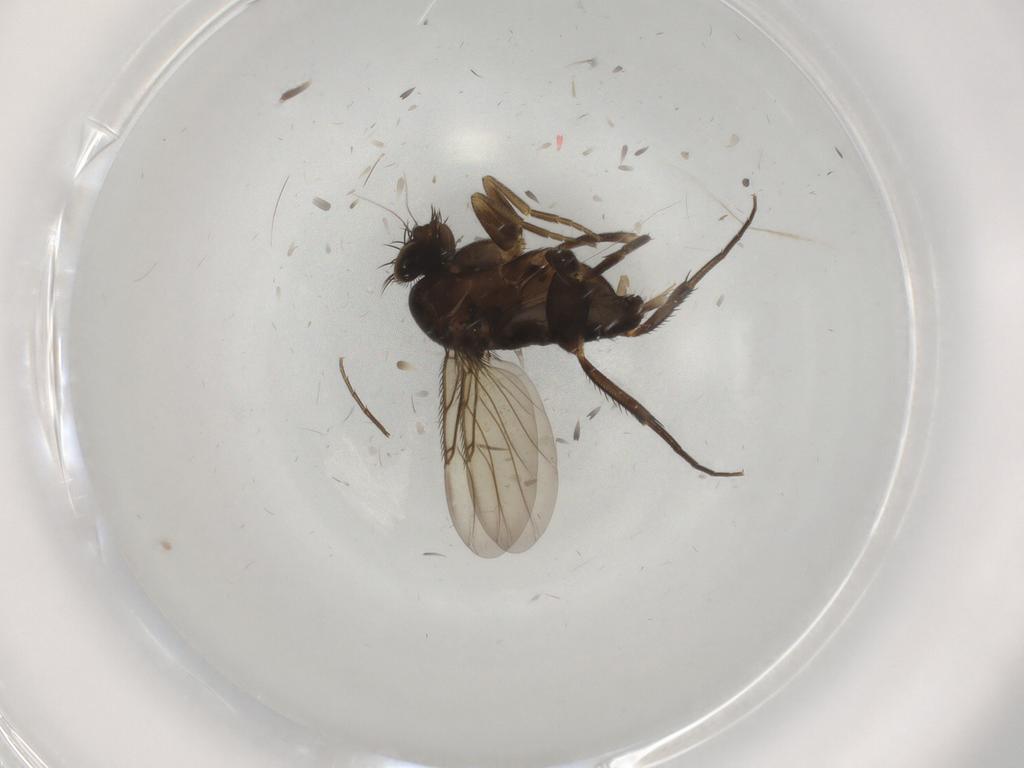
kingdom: Animalia
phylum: Arthropoda
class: Insecta
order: Diptera
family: Phoridae
